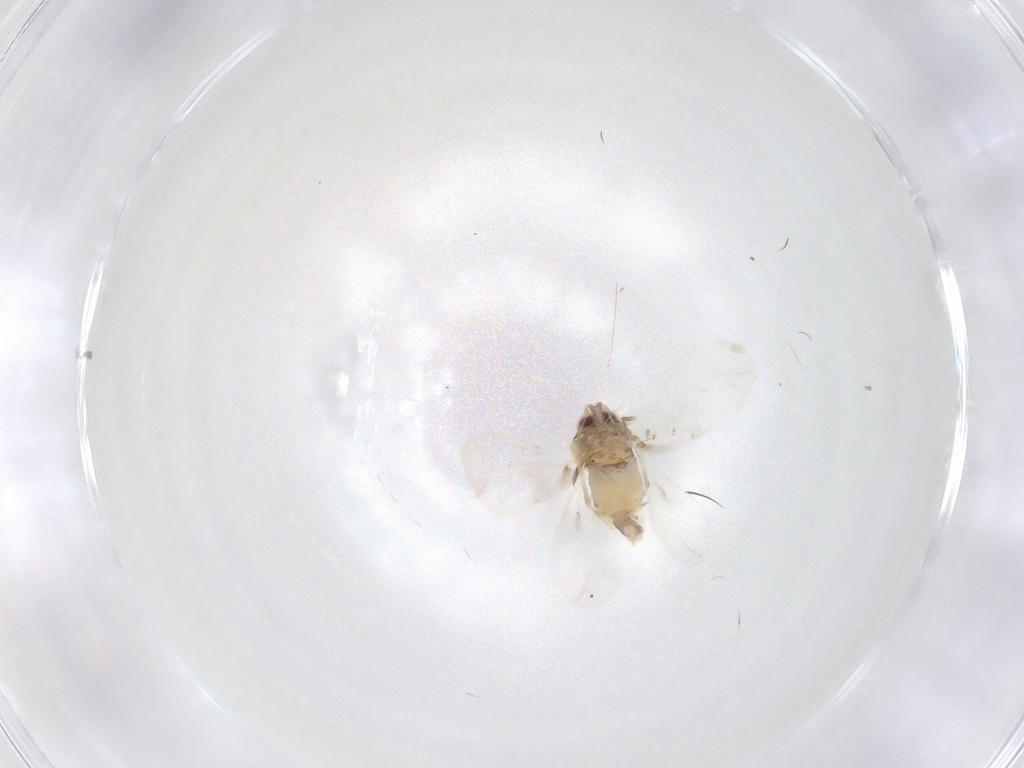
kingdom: Animalia
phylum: Arthropoda
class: Insecta
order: Hemiptera
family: Aleyrodidae
